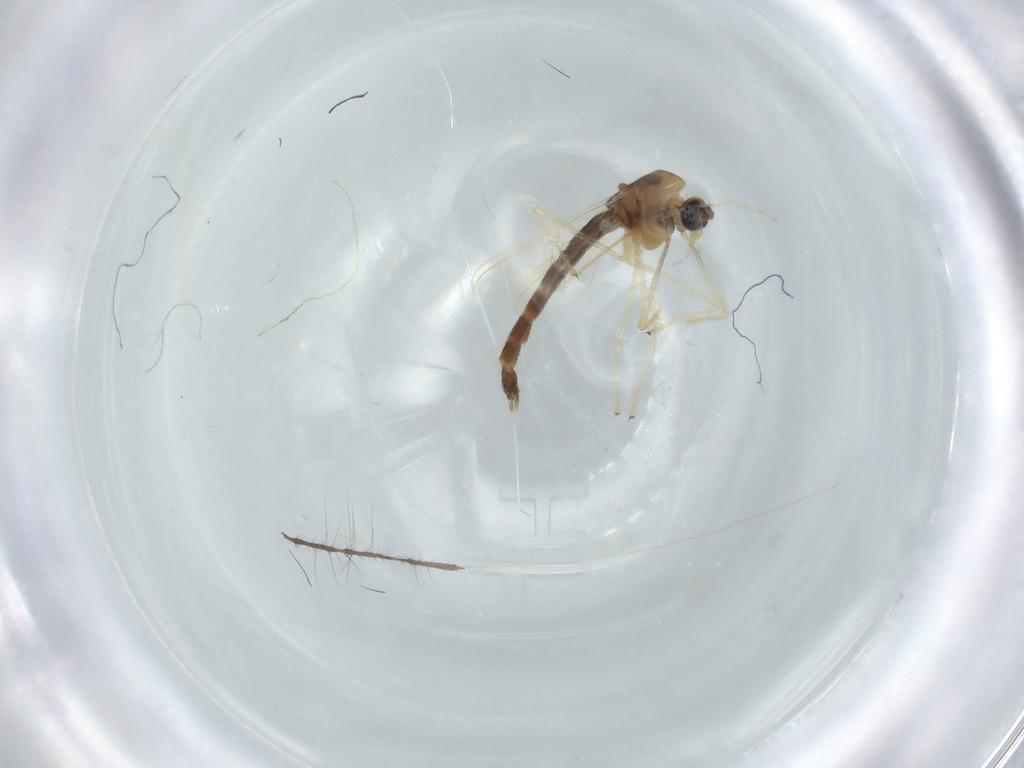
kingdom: Animalia
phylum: Arthropoda
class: Insecta
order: Diptera
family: Chironomidae
